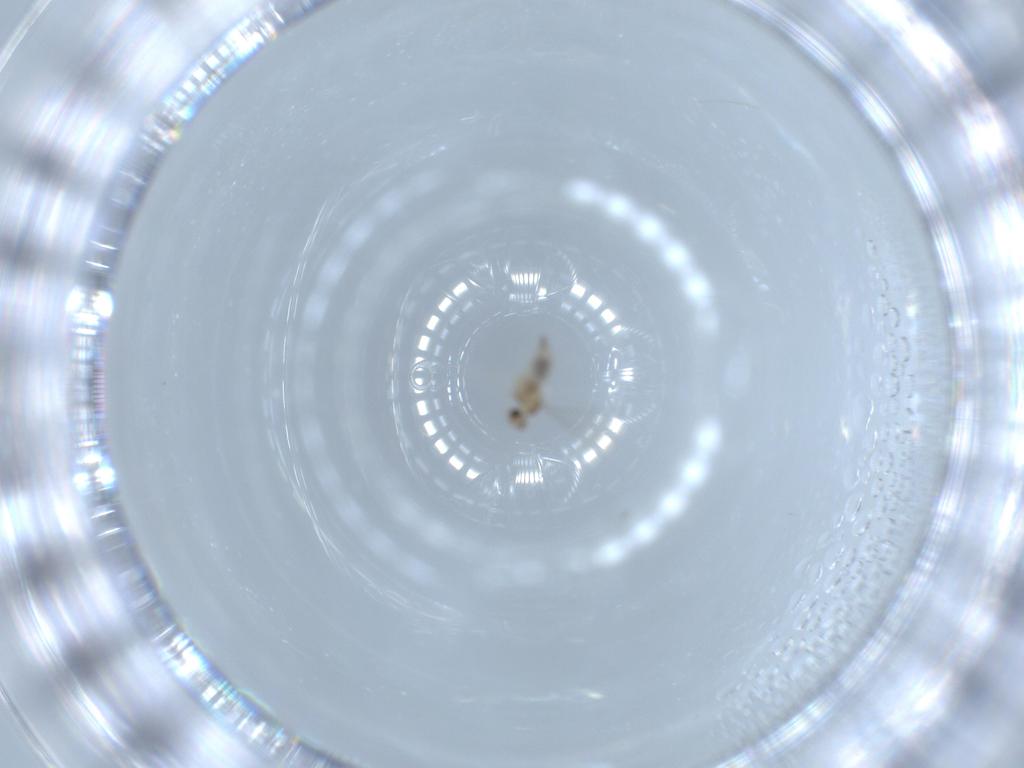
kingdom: Animalia
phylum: Arthropoda
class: Insecta
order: Diptera
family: Cecidomyiidae
